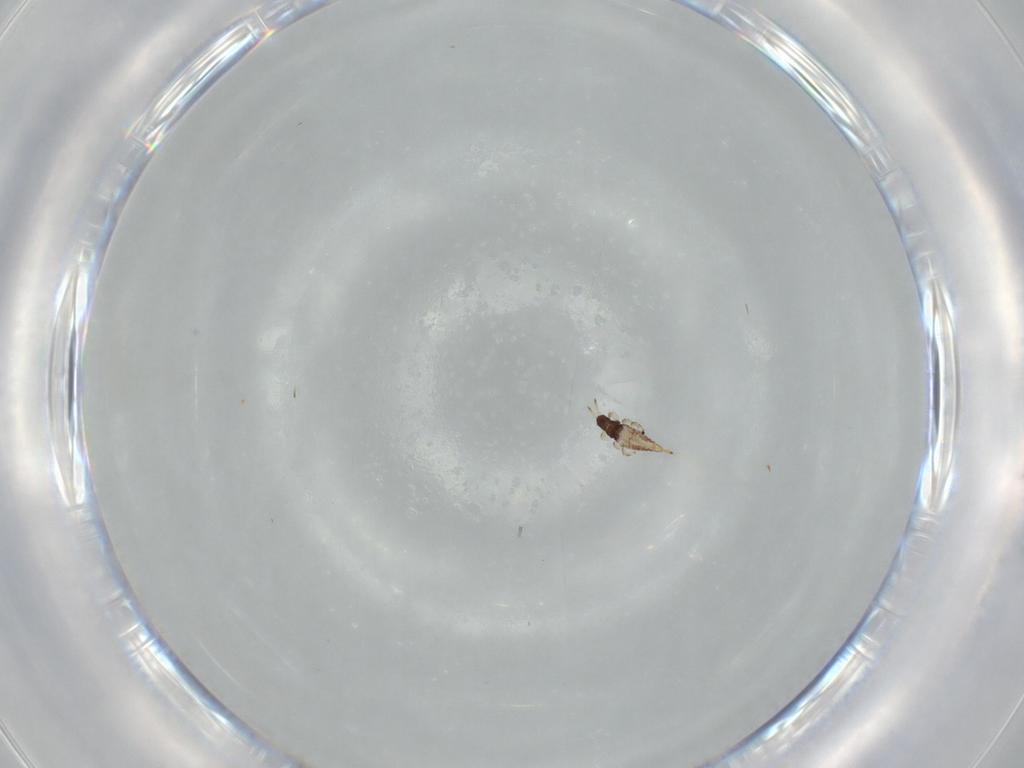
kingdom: Animalia
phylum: Arthropoda
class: Insecta
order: Thysanoptera
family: Phlaeothripidae
